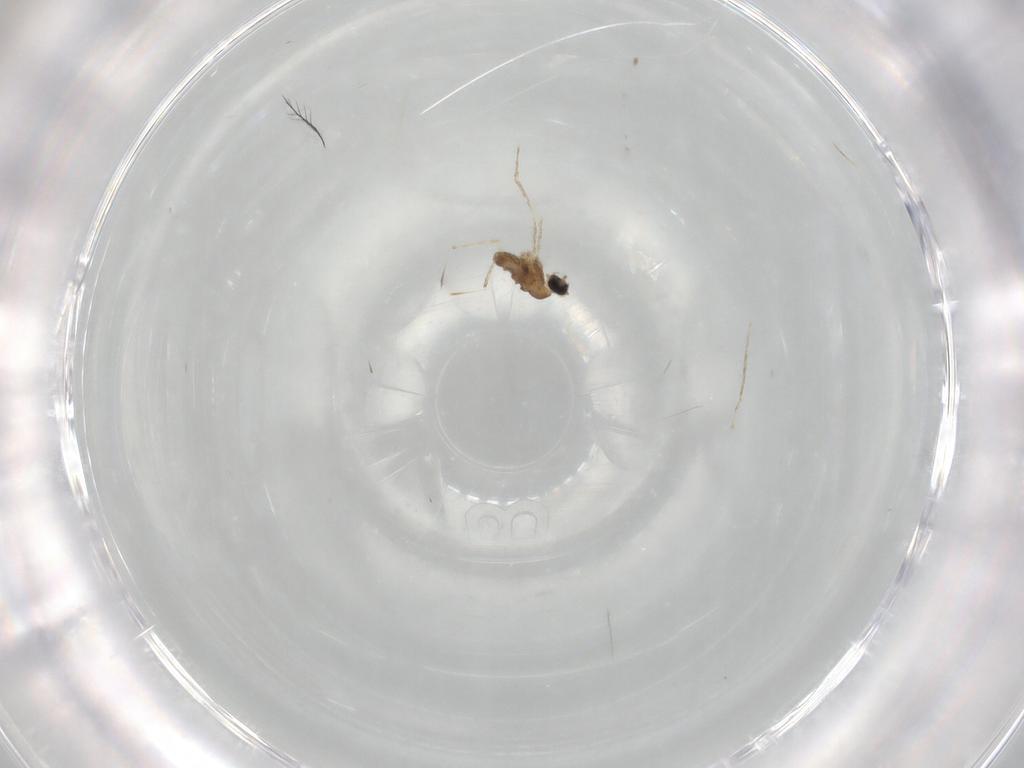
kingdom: Animalia
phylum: Arthropoda
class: Insecta
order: Diptera
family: Cecidomyiidae
